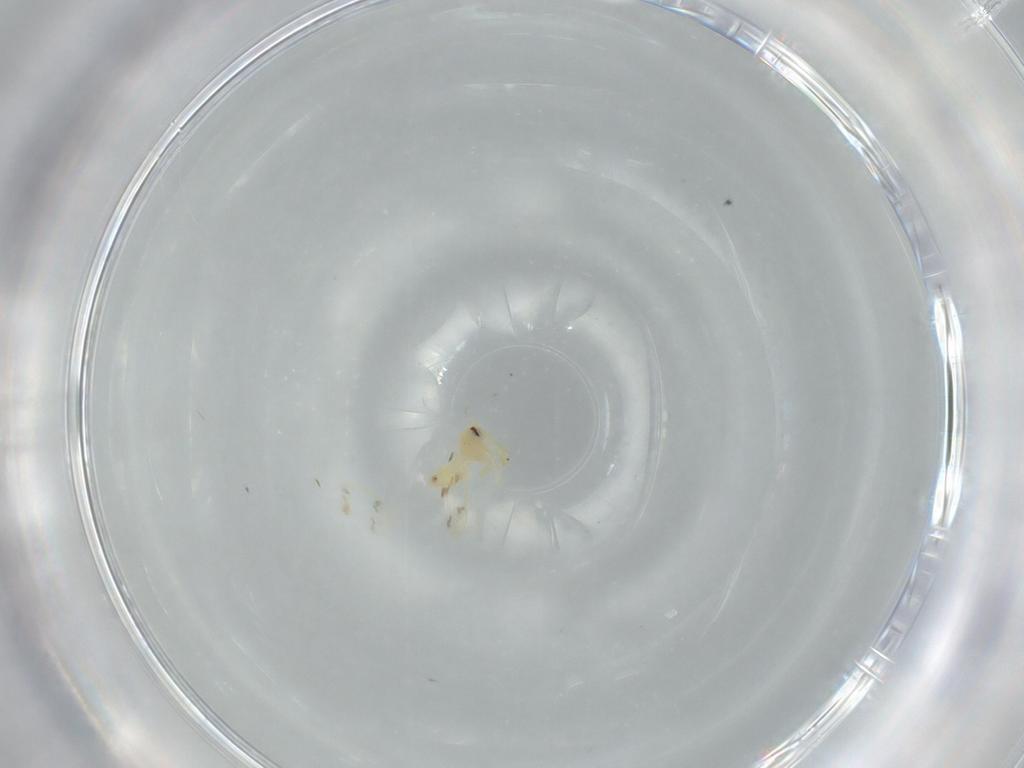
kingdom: Animalia
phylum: Arthropoda
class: Insecta
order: Hemiptera
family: Aleyrodidae
